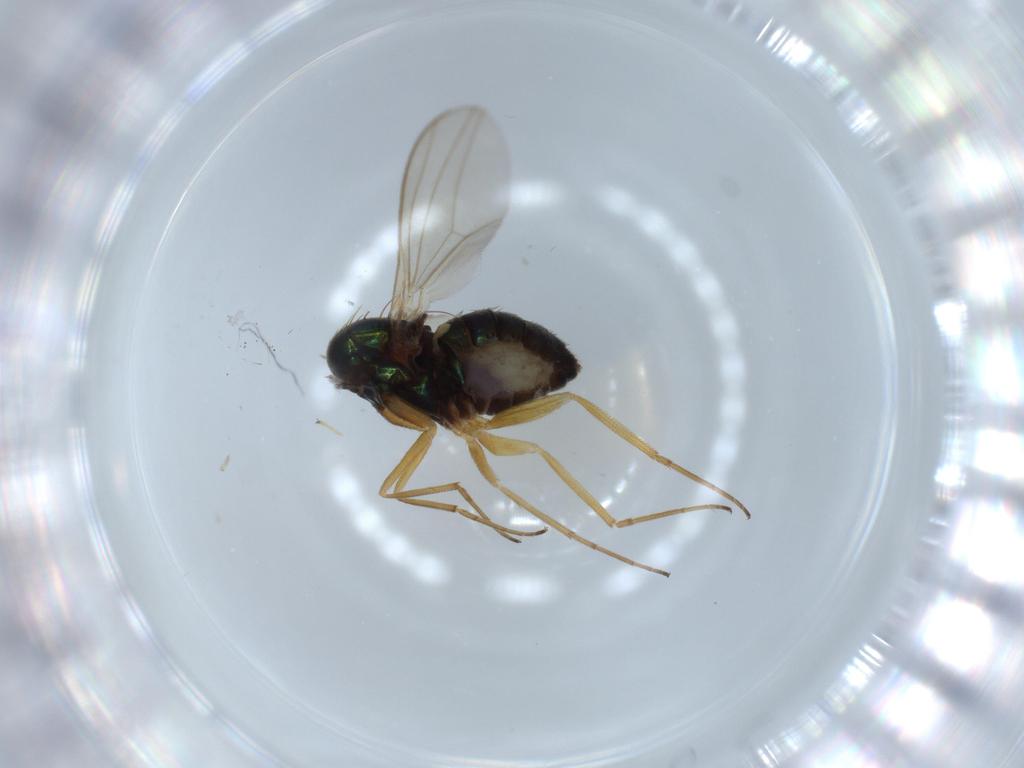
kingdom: Animalia
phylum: Arthropoda
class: Insecta
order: Diptera
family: Dolichopodidae
